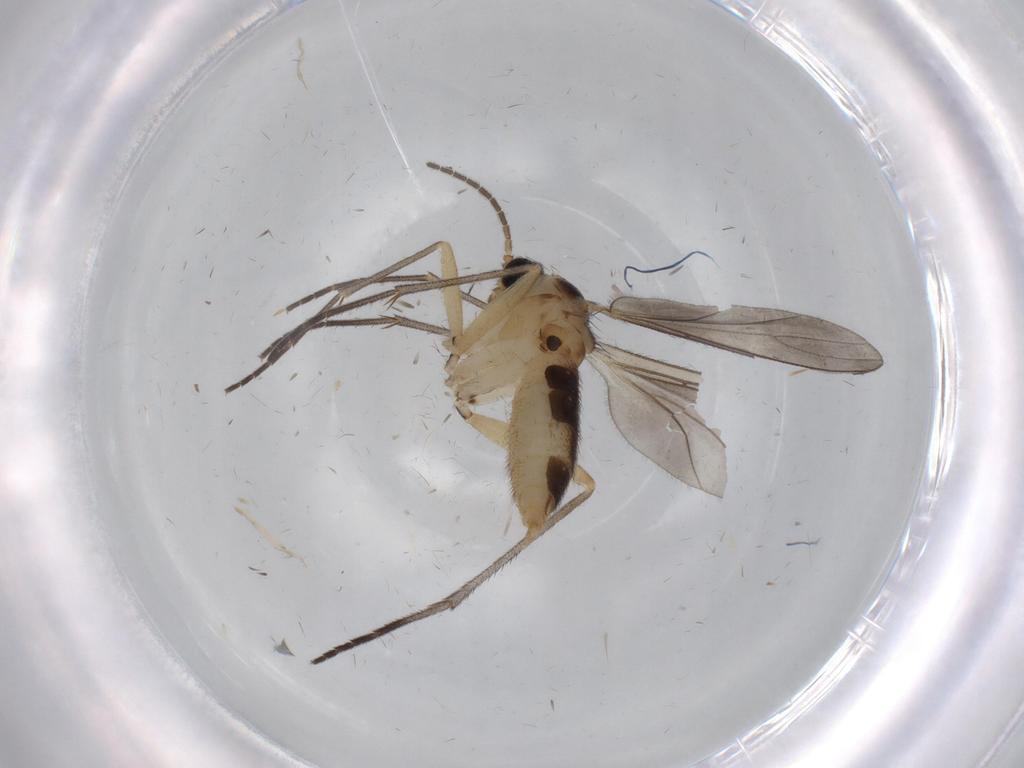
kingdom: Animalia
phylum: Arthropoda
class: Insecta
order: Diptera
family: Sciaridae
